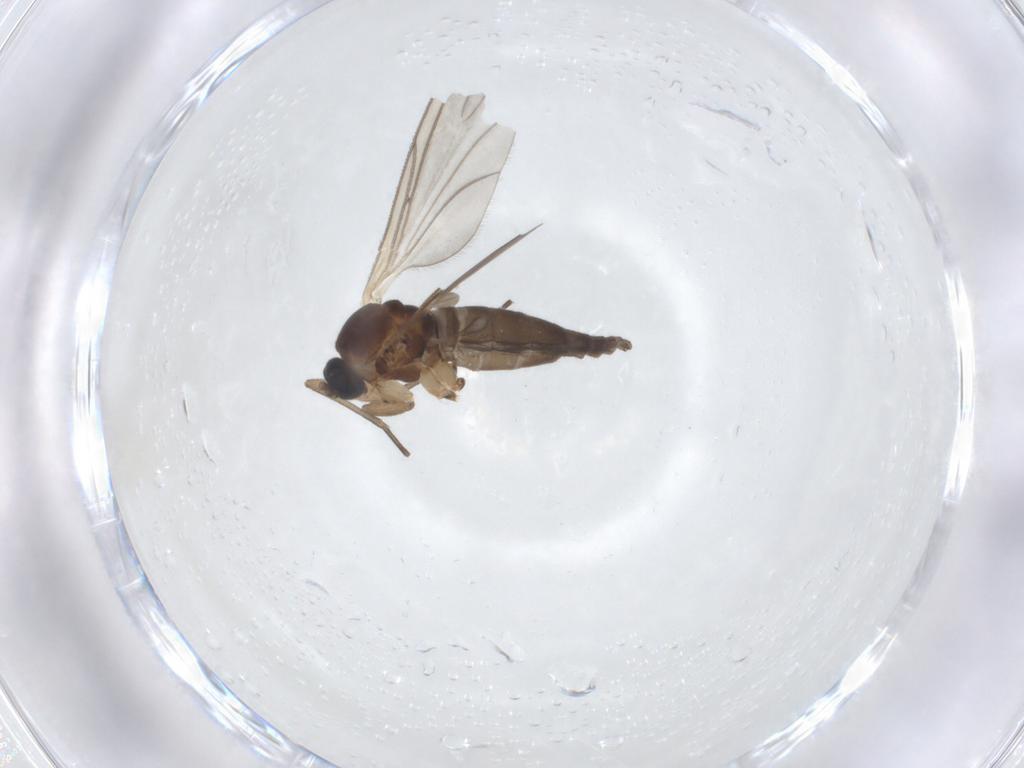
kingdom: Animalia
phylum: Arthropoda
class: Insecta
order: Diptera
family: Sciaridae
